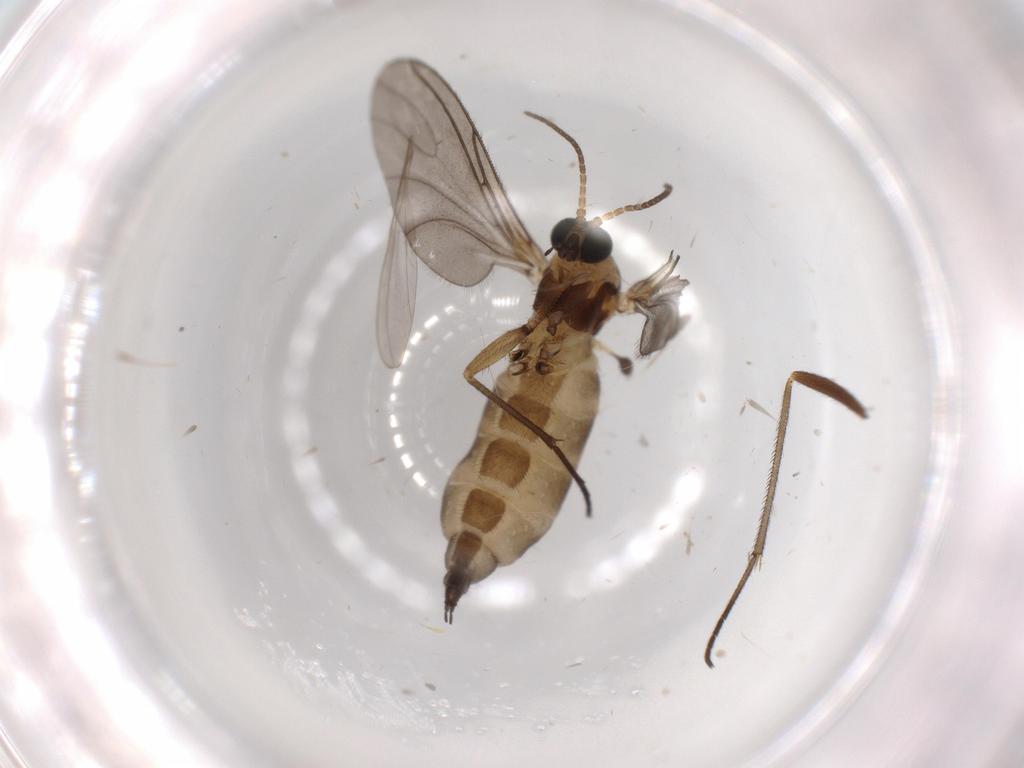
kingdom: Animalia
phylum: Arthropoda
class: Insecta
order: Diptera
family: Sciaridae
